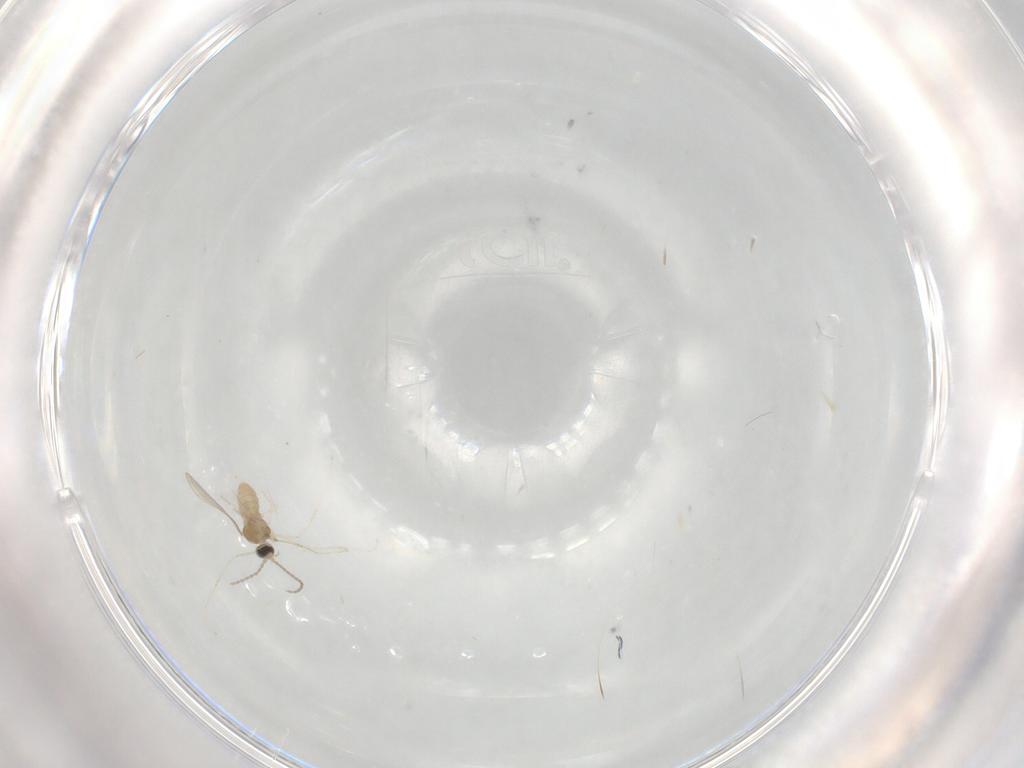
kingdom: Animalia
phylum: Arthropoda
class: Insecta
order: Diptera
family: Cecidomyiidae
